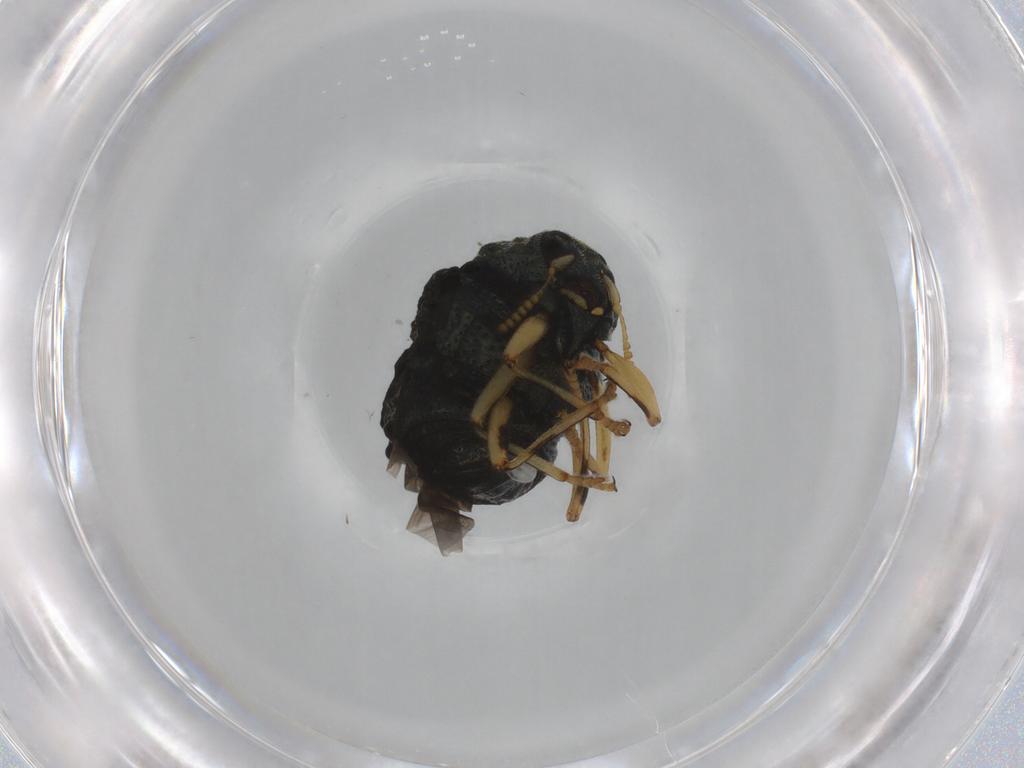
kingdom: Animalia
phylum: Arthropoda
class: Insecta
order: Coleoptera
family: Chrysomelidae
